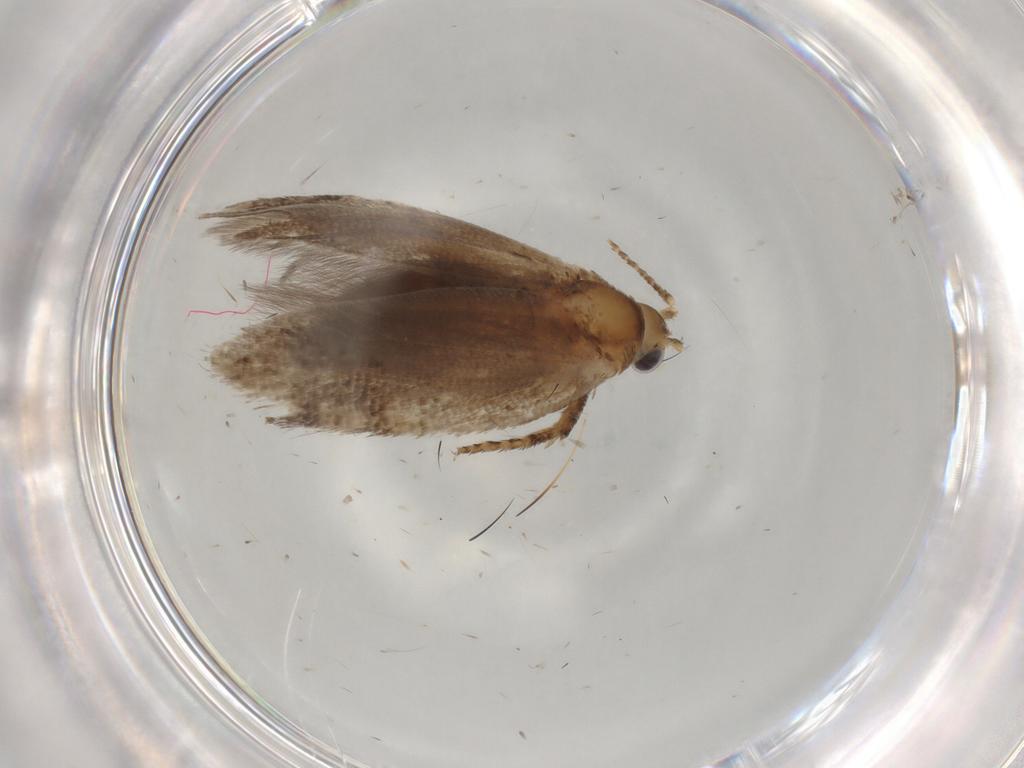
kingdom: Animalia
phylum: Arthropoda
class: Insecta
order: Lepidoptera
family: Plutellidae
